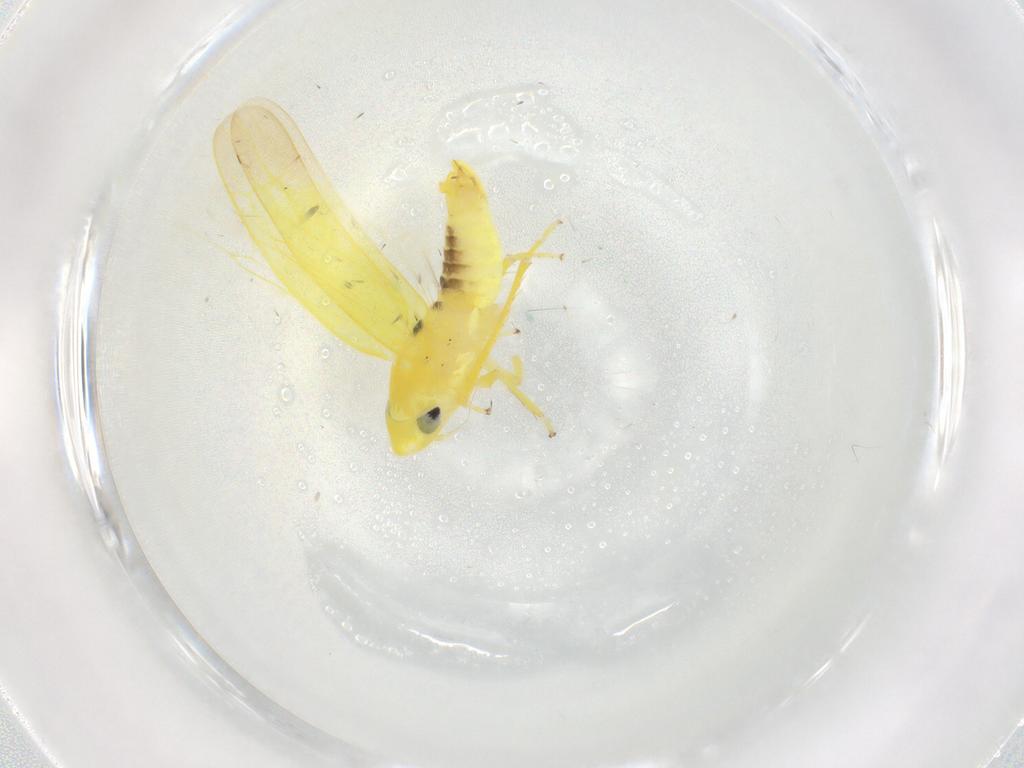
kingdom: Animalia
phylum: Arthropoda
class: Insecta
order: Hemiptera
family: Cicadellidae
